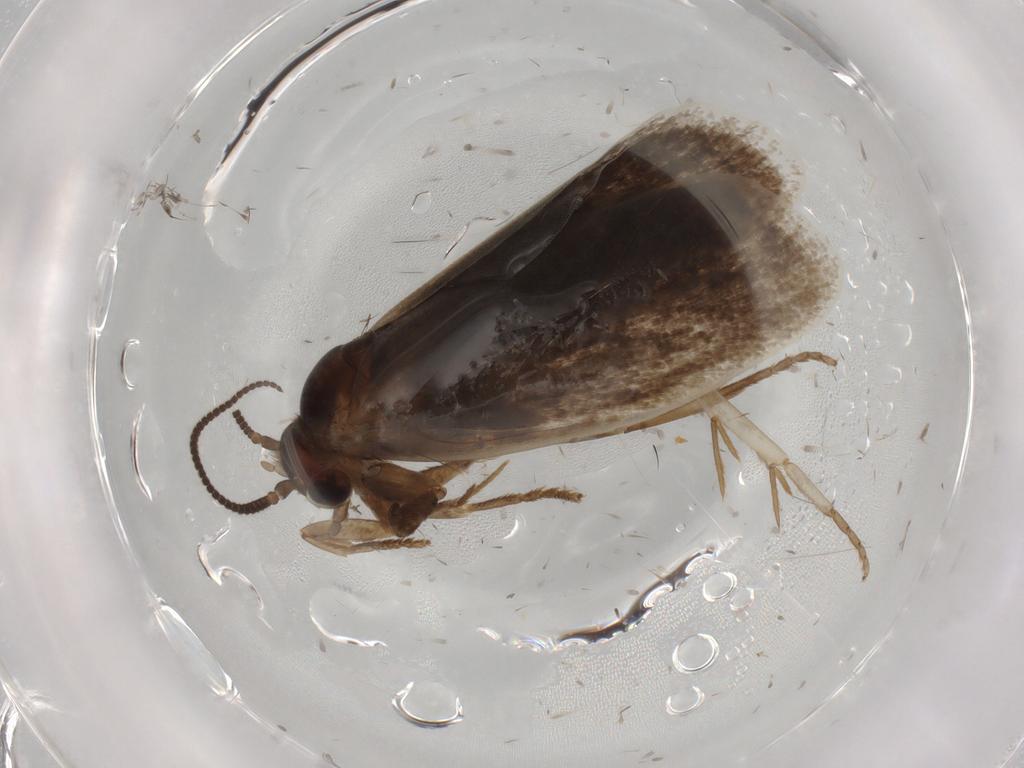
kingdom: Animalia
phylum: Arthropoda
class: Insecta
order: Lepidoptera
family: Tineidae
